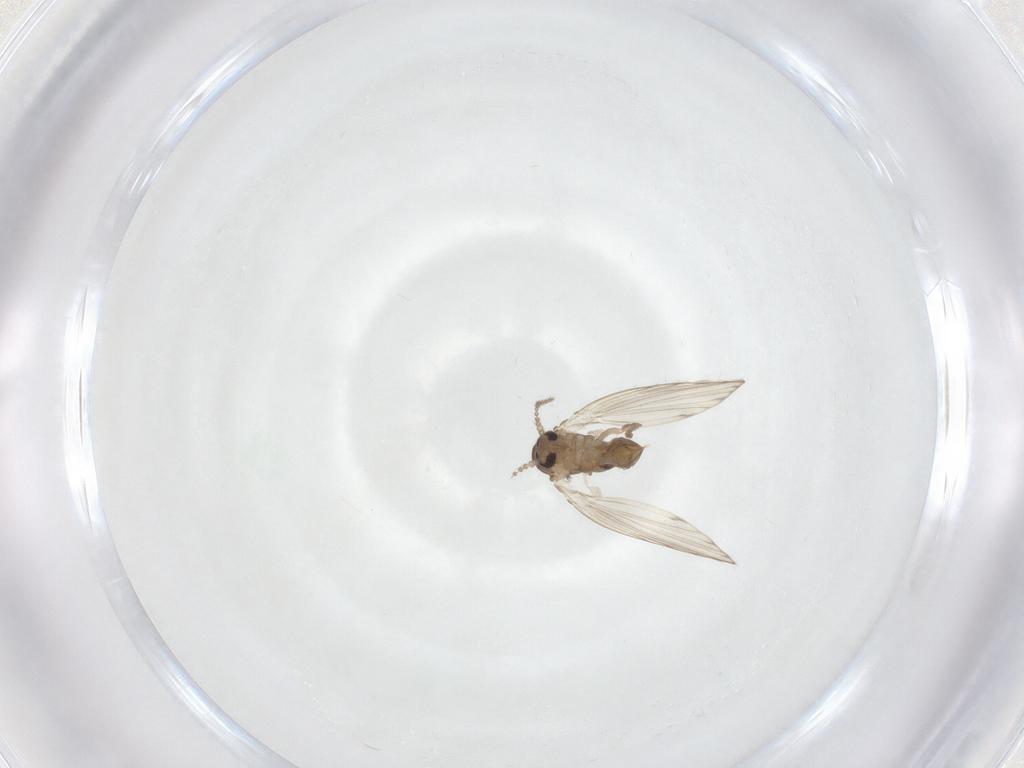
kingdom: Animalia
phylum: Arthropoda
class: Insecta
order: Diptera
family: Psychodidae
